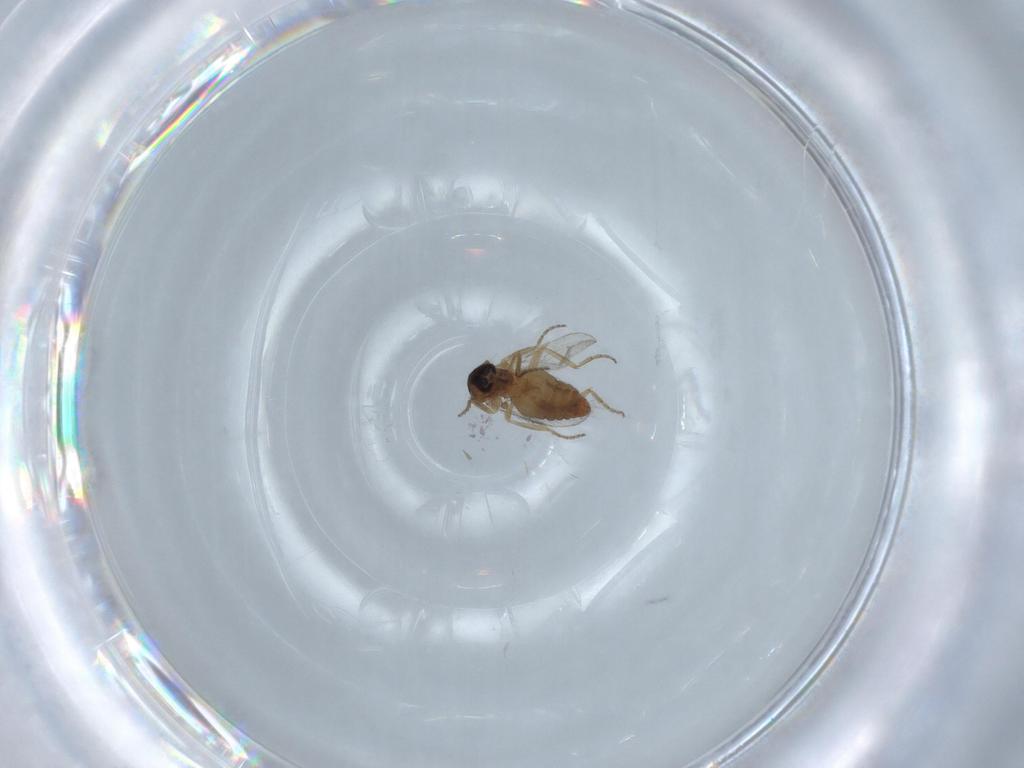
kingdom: Animalia
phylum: Arthropoda
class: Insecta
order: Diptera
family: Ceratopogonidae
